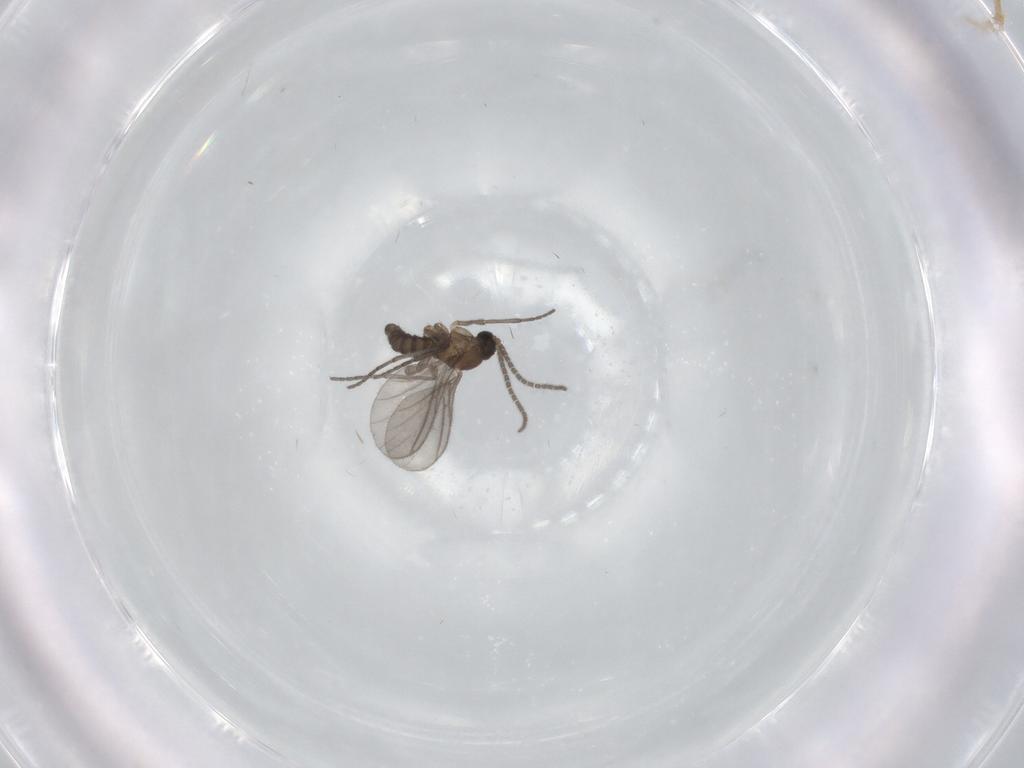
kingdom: Animalia
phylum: Arthropoda
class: Insecta
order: Diptera
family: Sciaridae
